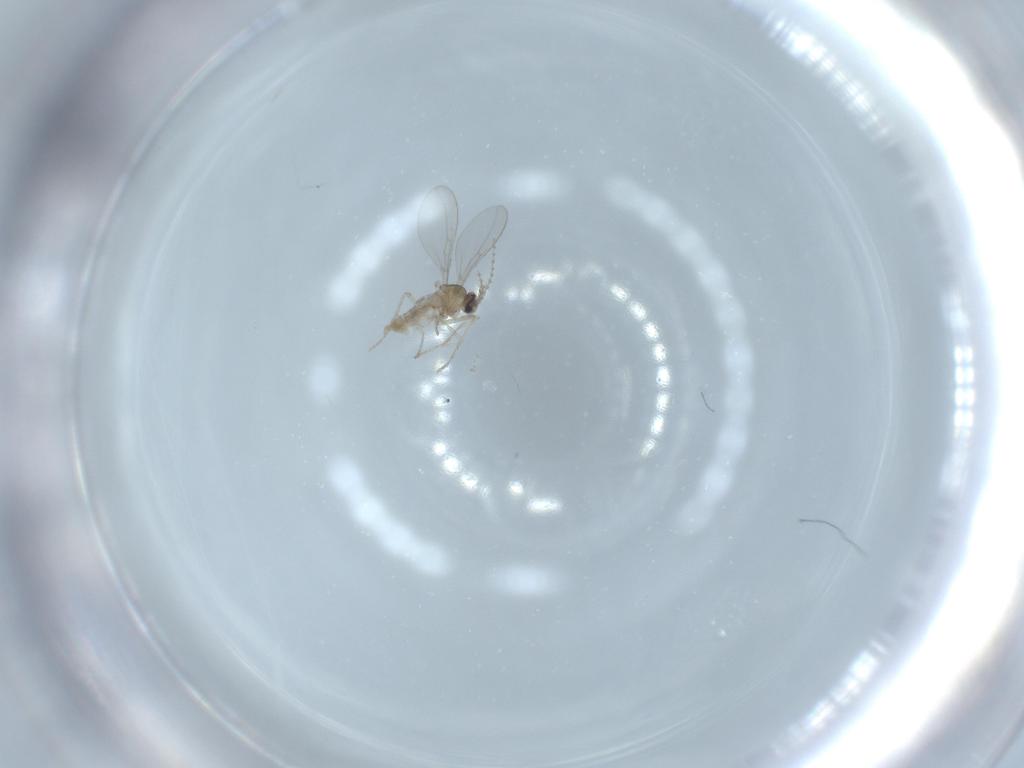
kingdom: Animalia
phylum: Arthropoda
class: Insecta
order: Diptera
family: Cecidomyiidae
